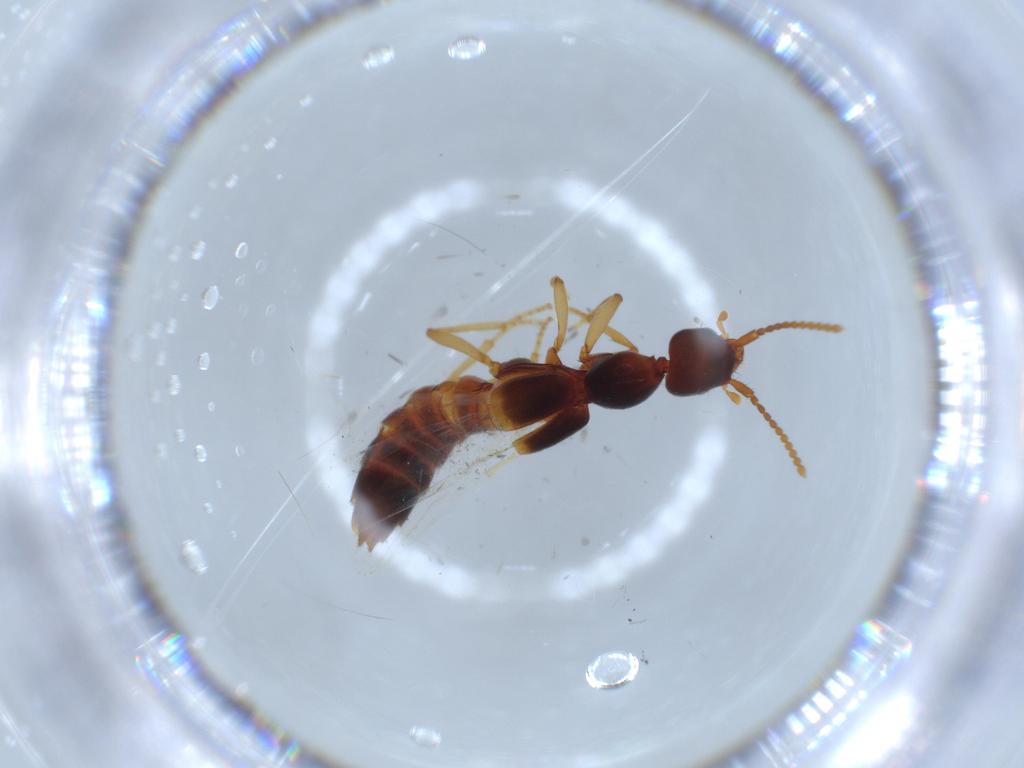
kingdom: Animalia
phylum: Arthropoda
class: Insecta
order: Coleoptera
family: Staphylinidae
